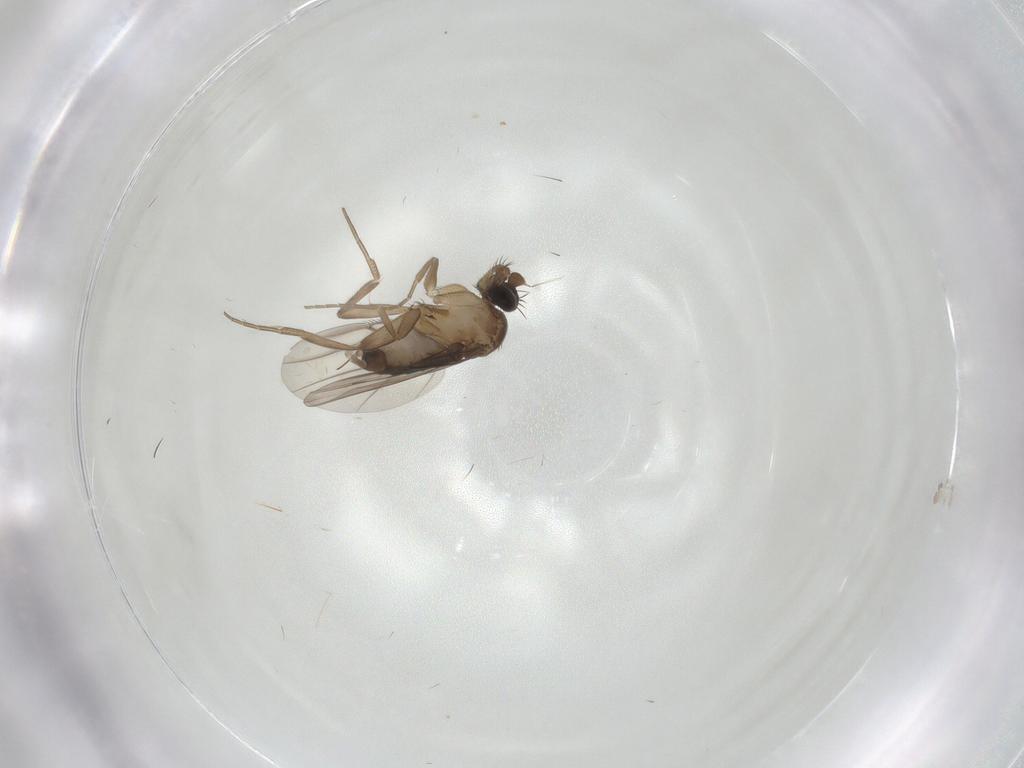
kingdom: Animalia
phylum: Arthropoda
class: Insecta
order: Diptera
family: Phoridae
